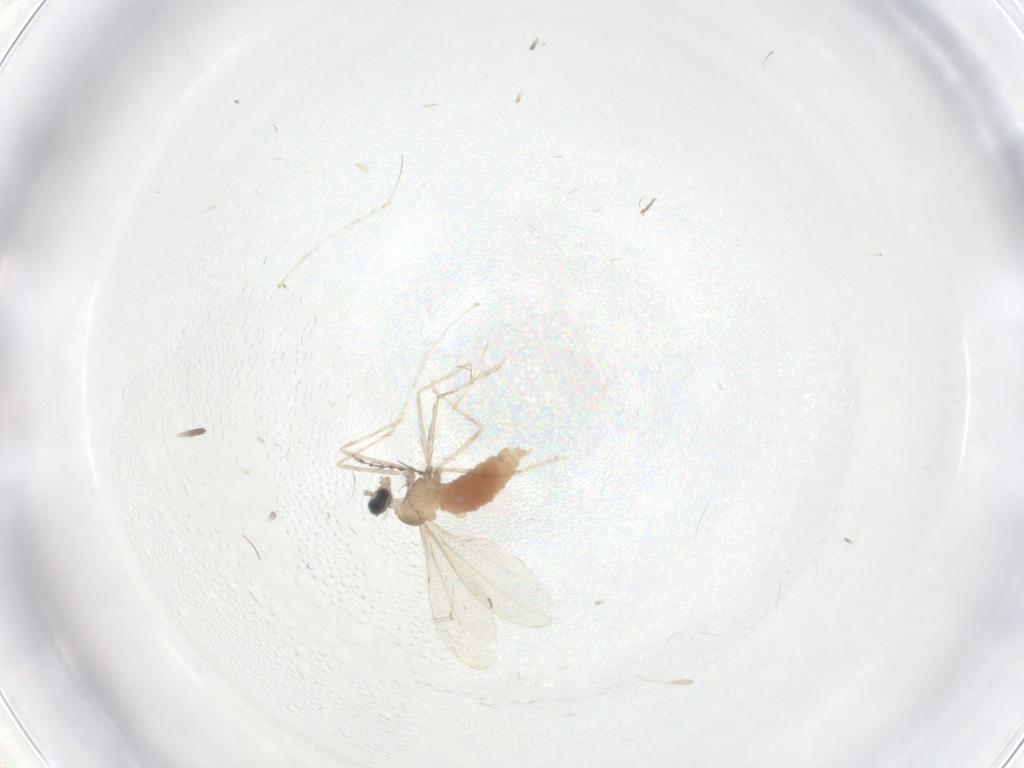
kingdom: Animalia
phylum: Arthropoda
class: Insecta
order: Diptera
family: Cecidomyiidae
